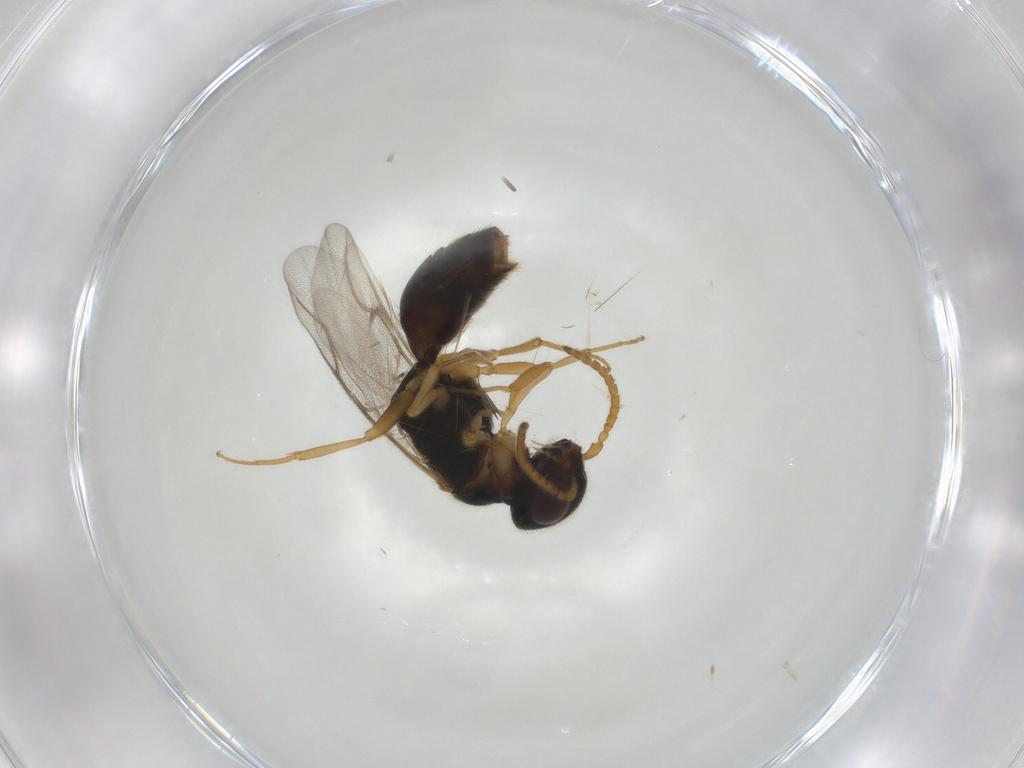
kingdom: Animalia
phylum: Arthropoda
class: Insecta
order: Hymenoptera
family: Bethylidae
